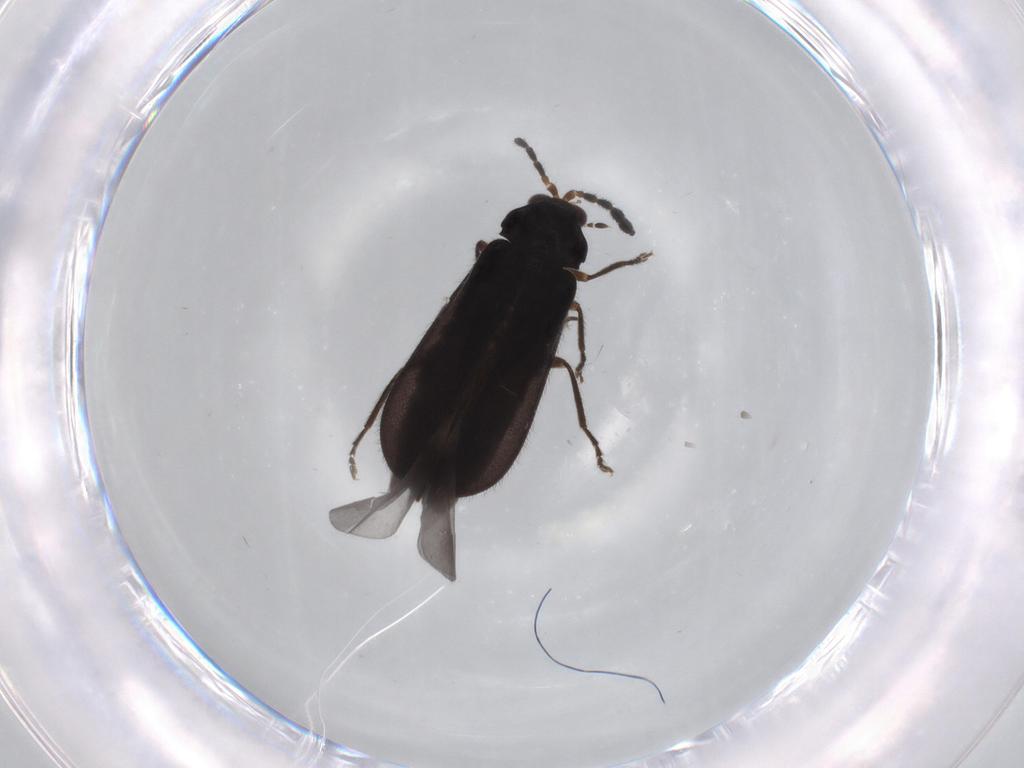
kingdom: Animalia
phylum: Arthropoda
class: Insecta
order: Coleoptera
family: Cantharidae
